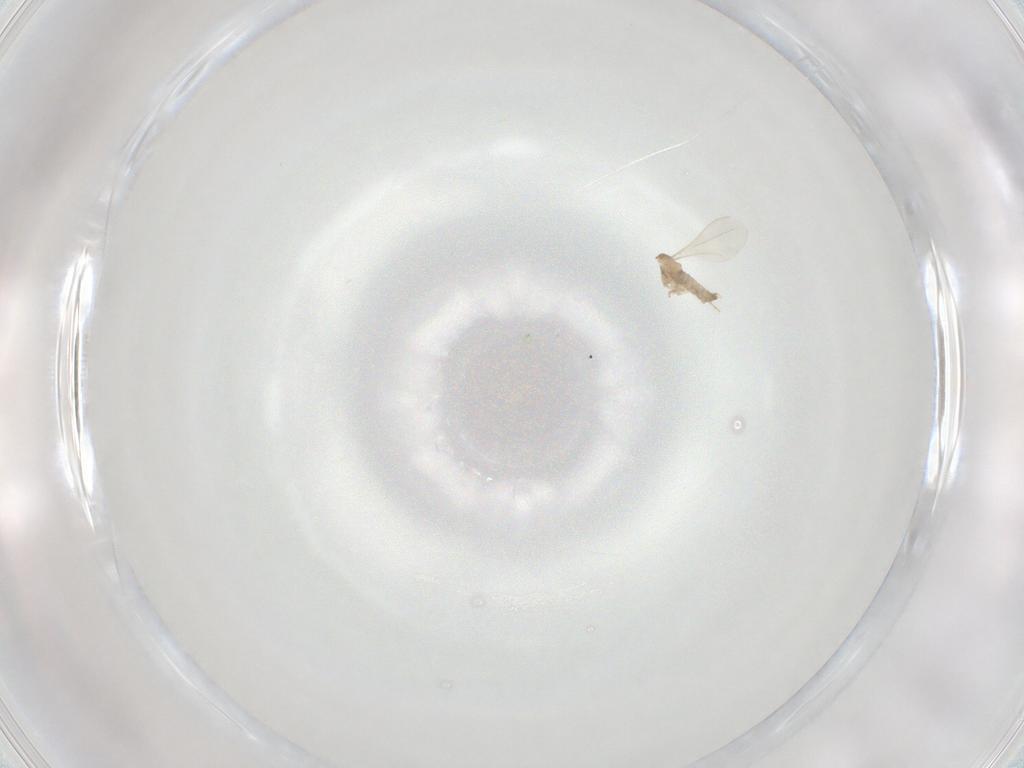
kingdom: Animalia
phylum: Arthropoda
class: Insecta
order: Diptera
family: Cecidomyiidae
